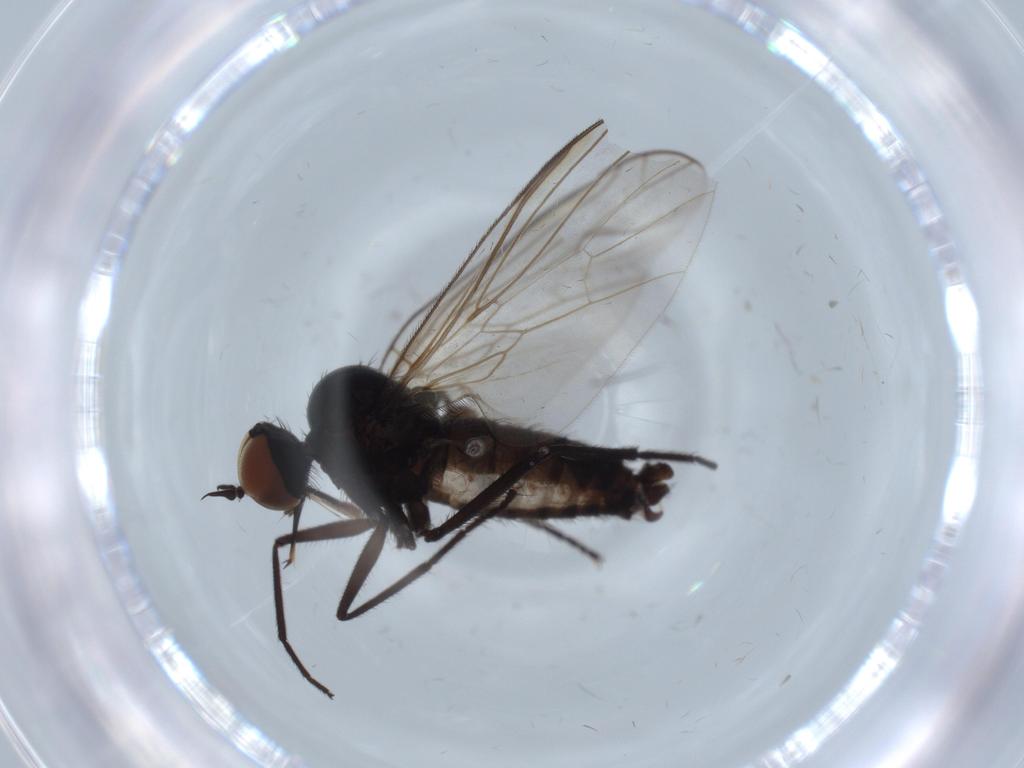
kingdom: Animalia
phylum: Arthropoda
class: Insecta
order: Diptera
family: Empididae
